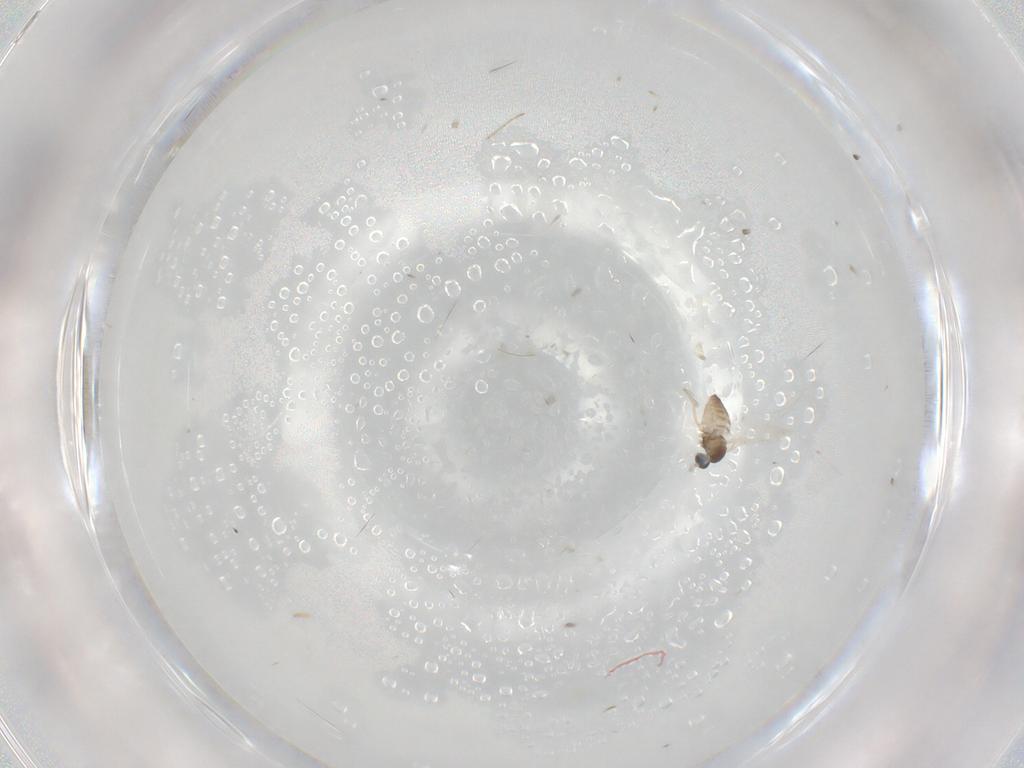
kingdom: Animalia
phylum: Arthropoda
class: Insecta
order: Diptera
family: Cecidomyiidae
